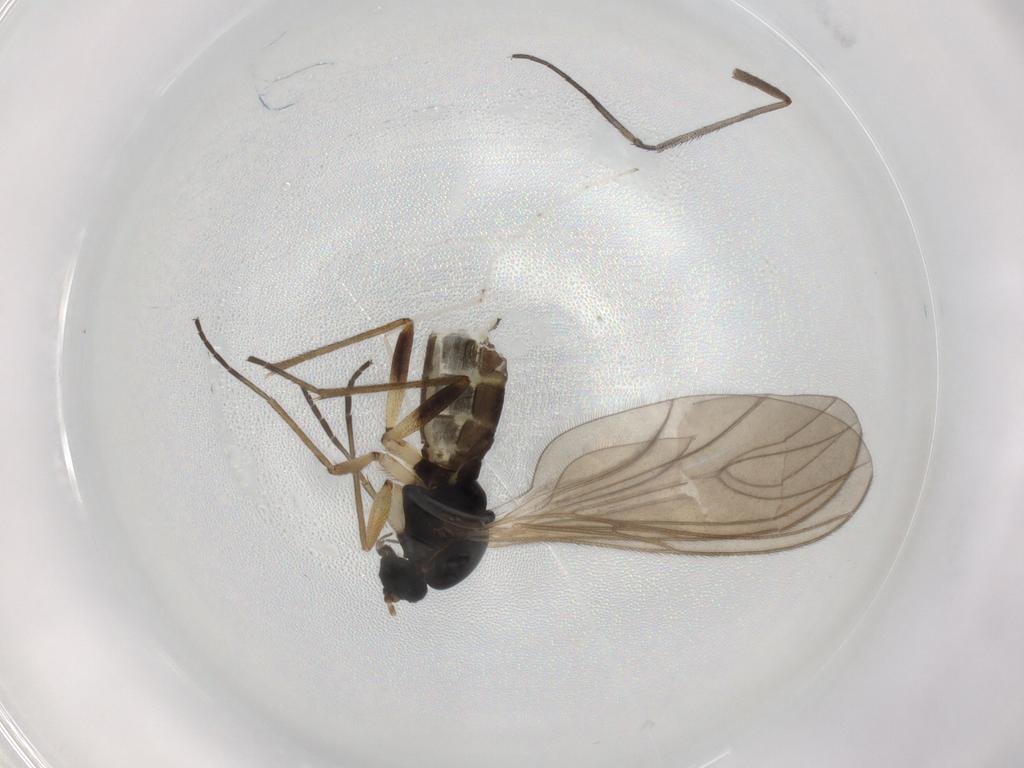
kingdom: Animalia
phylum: Arthropoda
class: Insecta
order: Diptera
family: Sciaridae
